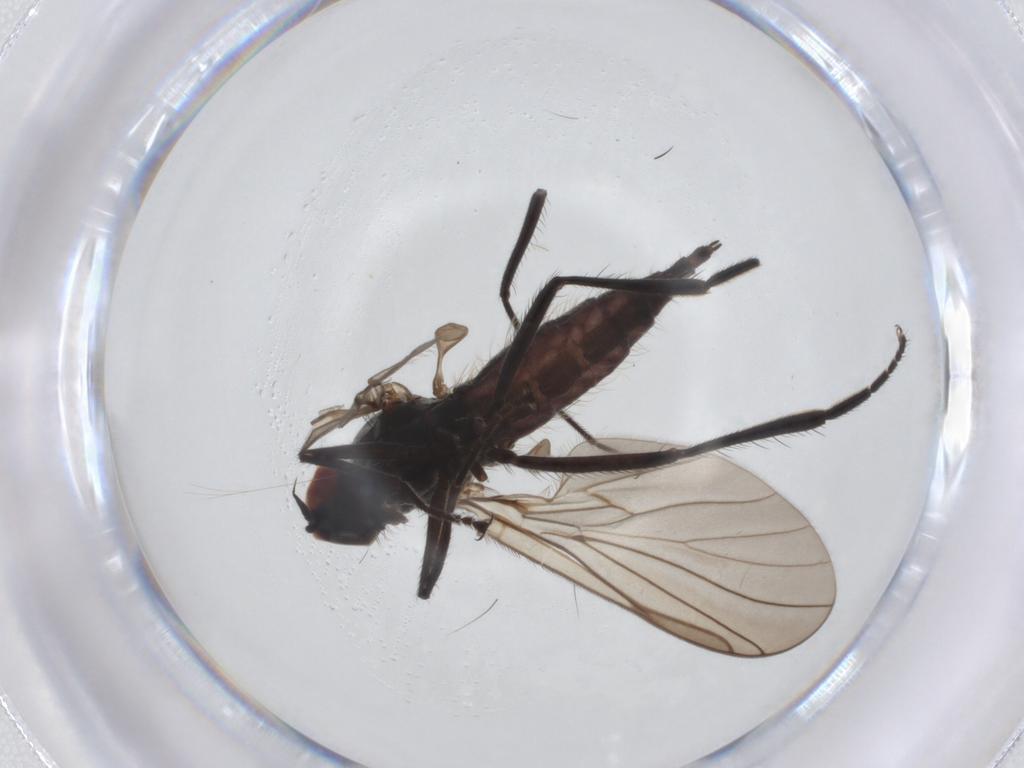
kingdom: Animalia
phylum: Arthropoda
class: Insecta
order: Diptera
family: Hybotidae
